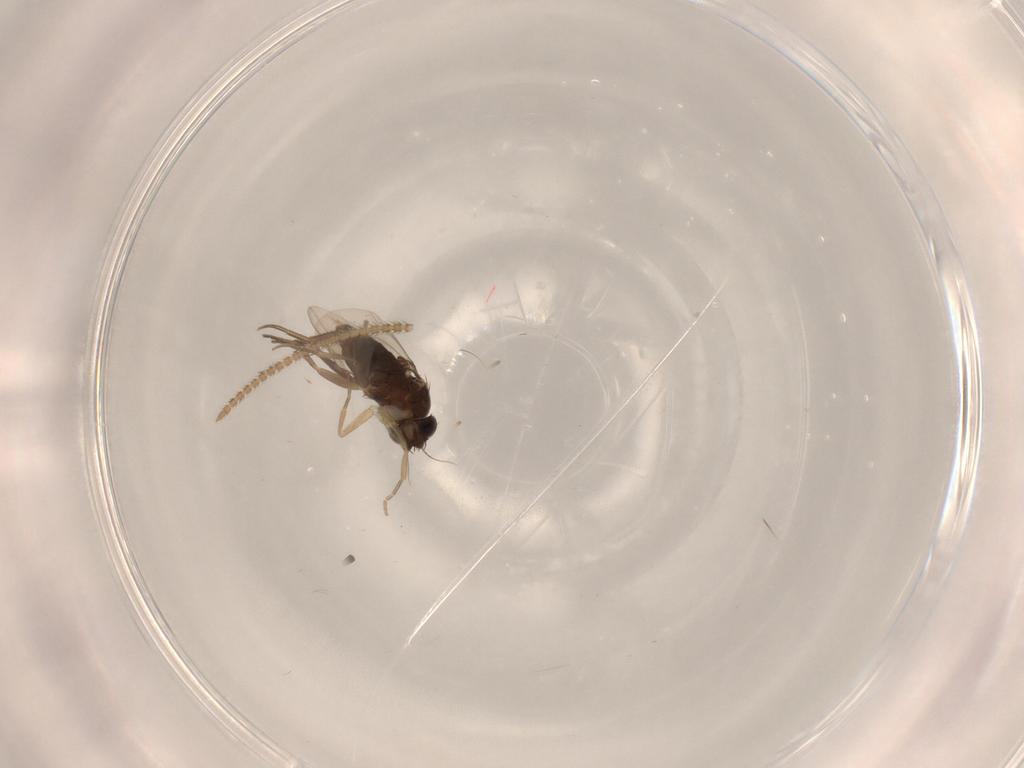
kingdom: Animalia
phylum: Arthropoda
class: Insecta
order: Diptera
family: Phoridae
